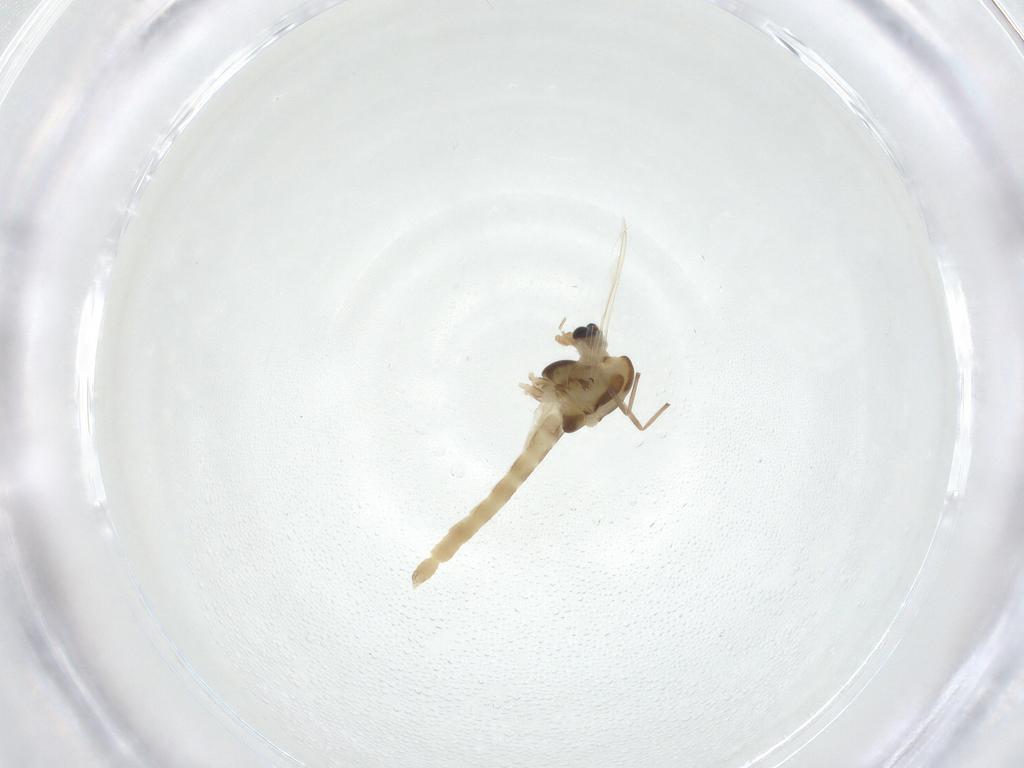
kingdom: Animalia
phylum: Arthropoda
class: Insecta
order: Diptera
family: Chironomidae
